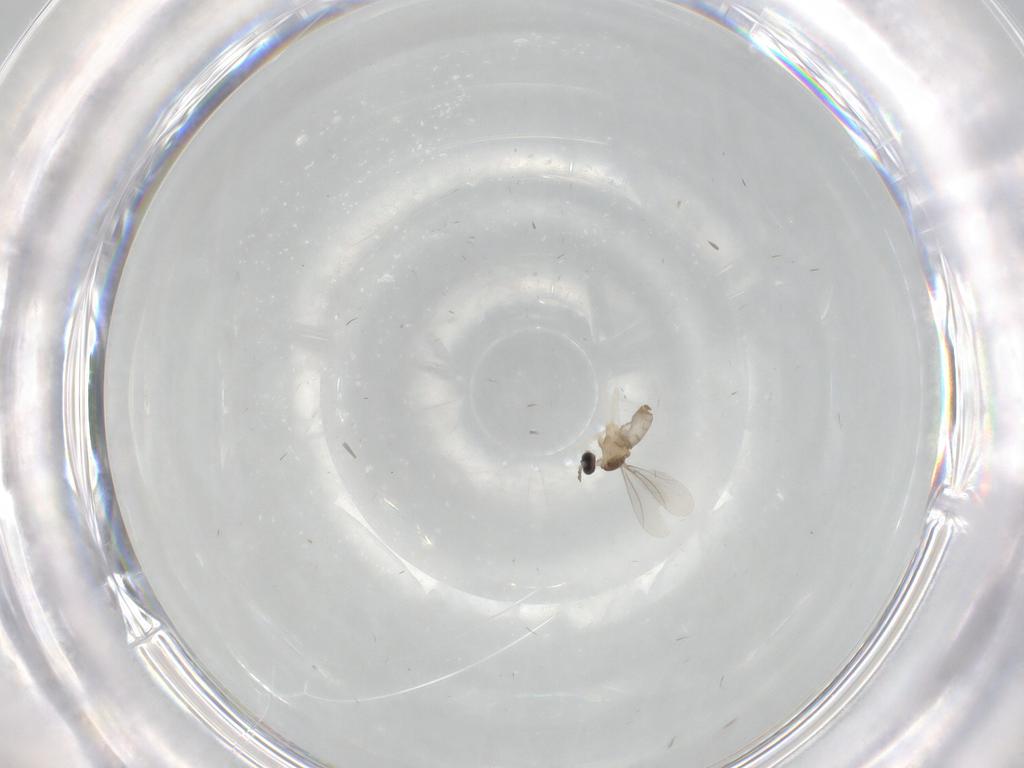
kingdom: Animalia
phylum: Arthropoda
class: Insecta
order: Diptera
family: Cecidomyiidae
